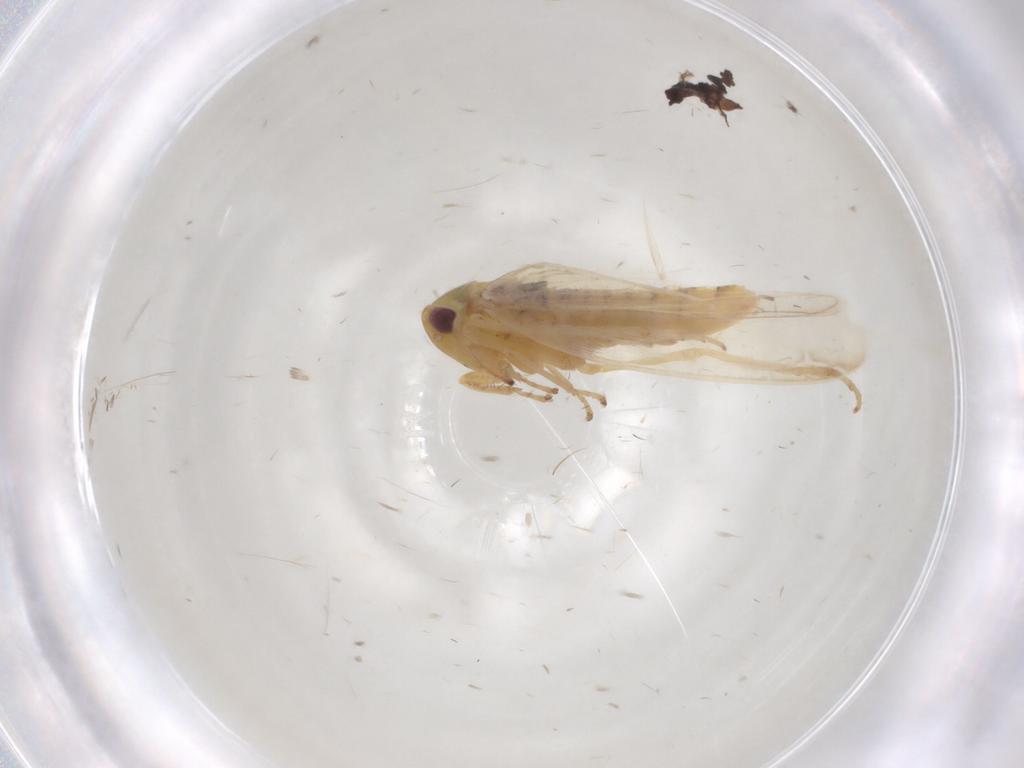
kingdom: Animalia
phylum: Arthropoda
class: Insecta
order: Hemiptera
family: Cicadellidae
